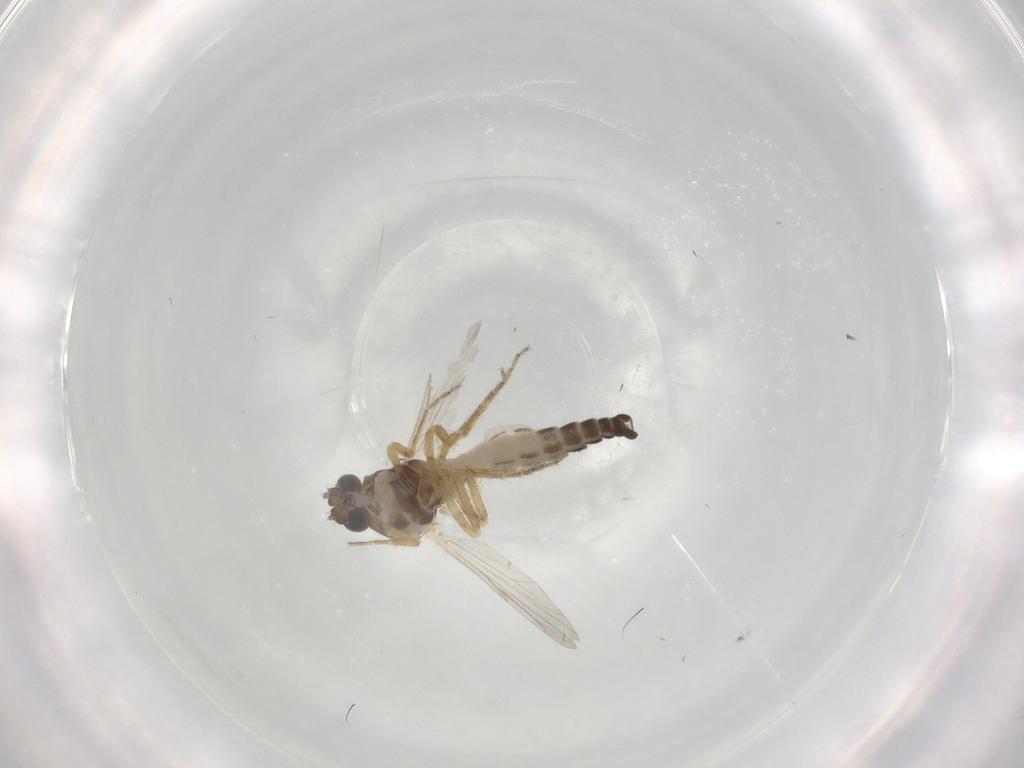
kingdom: Animalia
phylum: Arthropoda
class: Insecta
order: Diptera
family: Ceratopogonidae
